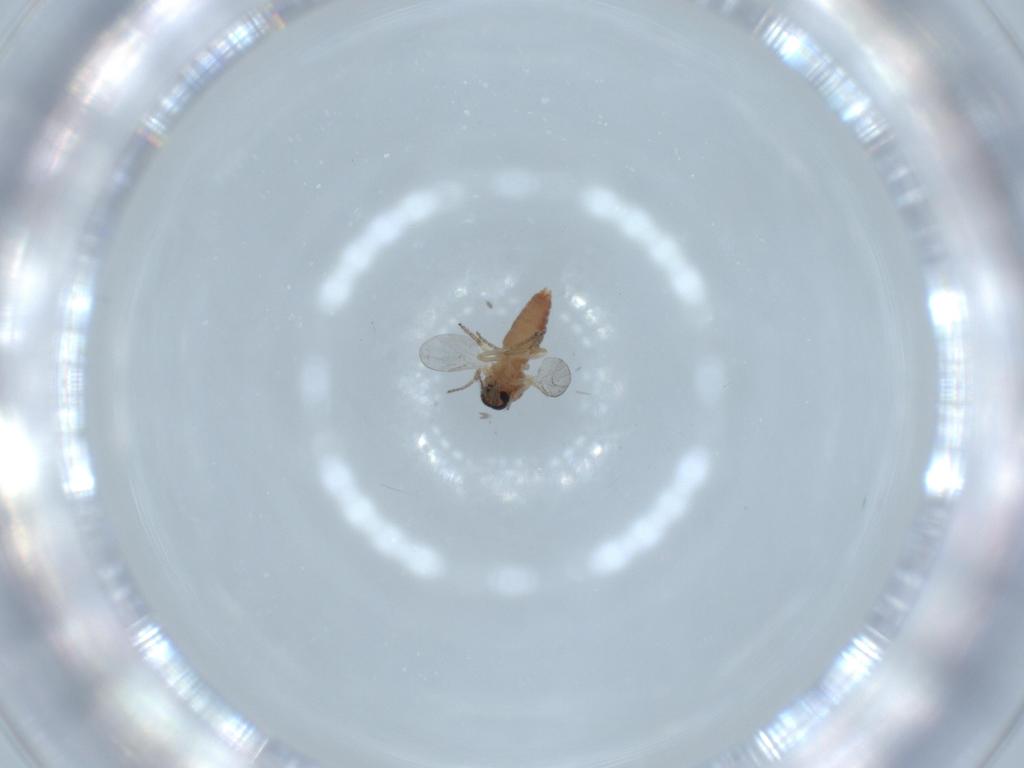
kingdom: Animalia
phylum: Arthropoda
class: Insecta
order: Diptera
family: Ceratopogonidae
